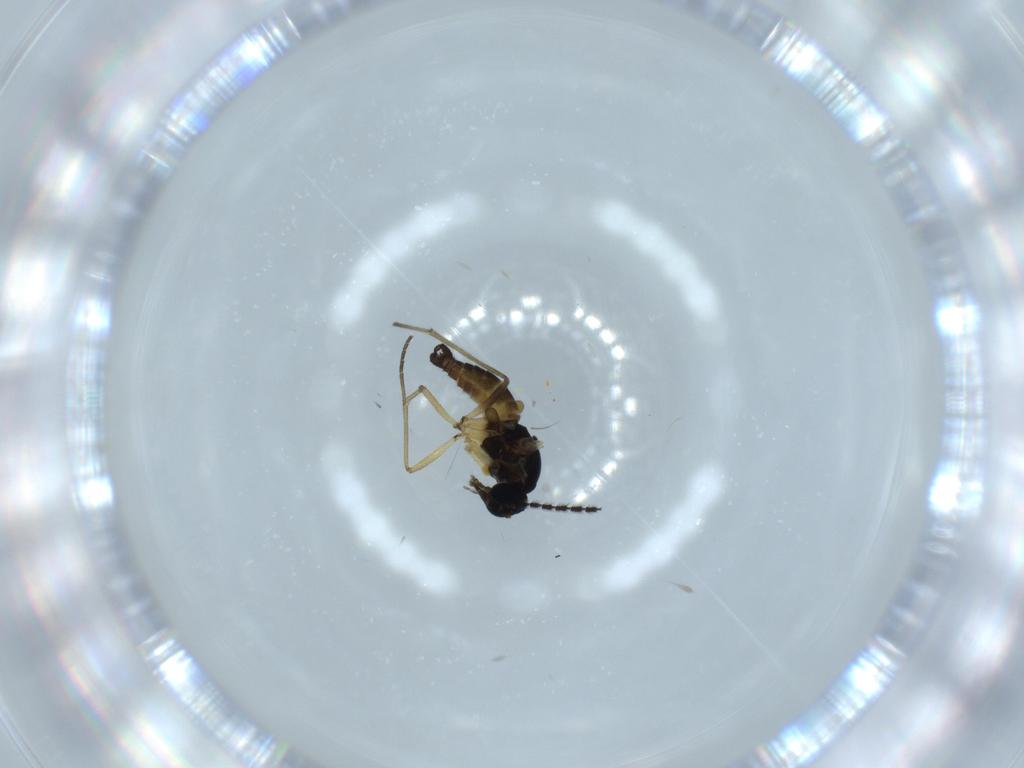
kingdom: Animalia
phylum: Arthropoda
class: Insecta
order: Diptera
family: Sciaridae
